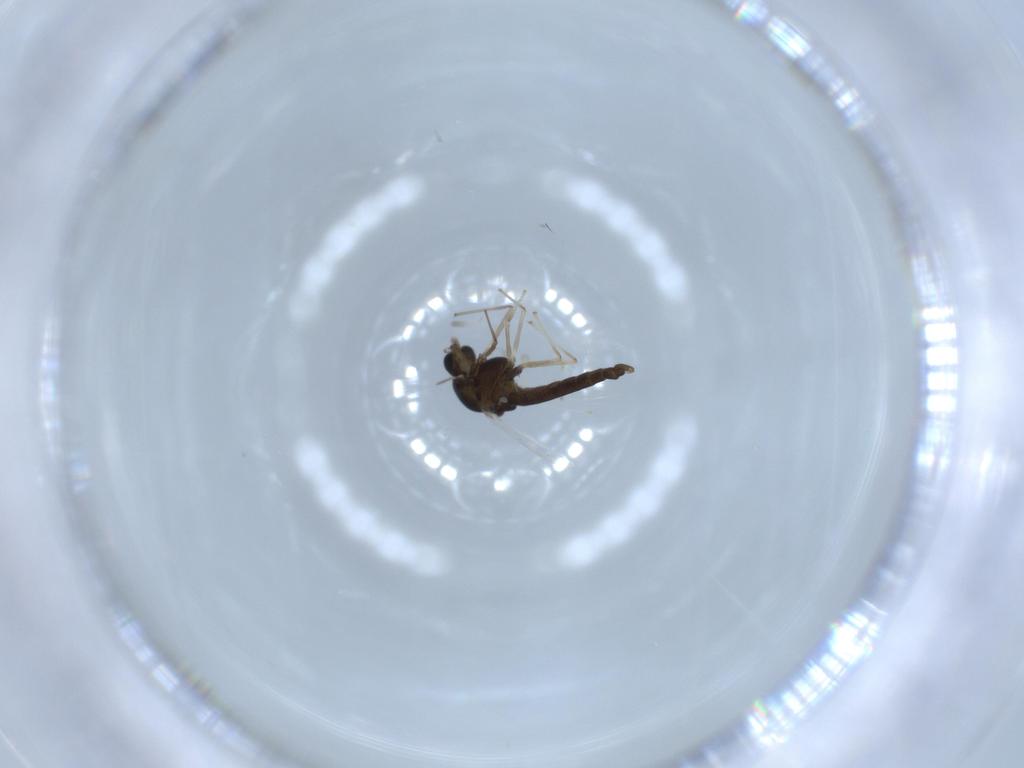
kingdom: Animalia
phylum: Arthropoda
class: Insecta
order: Diptera
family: Chironomidae
